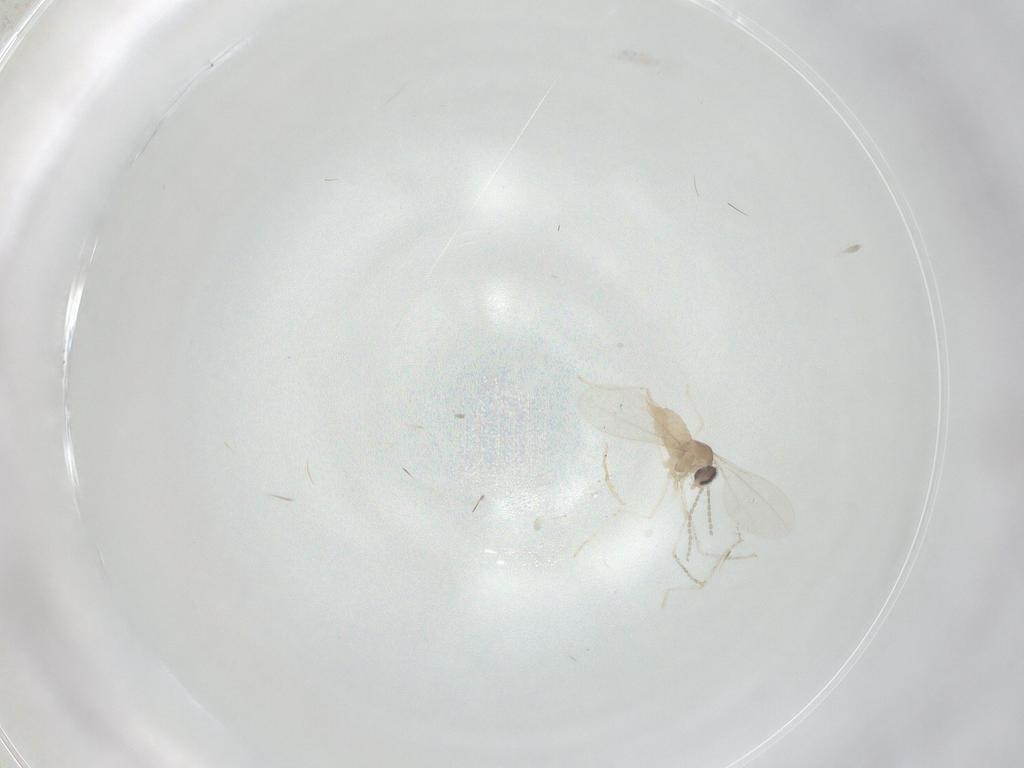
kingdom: Animalia
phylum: Arthropoda
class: Insecta
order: Diptera
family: Cecidomyiidae
